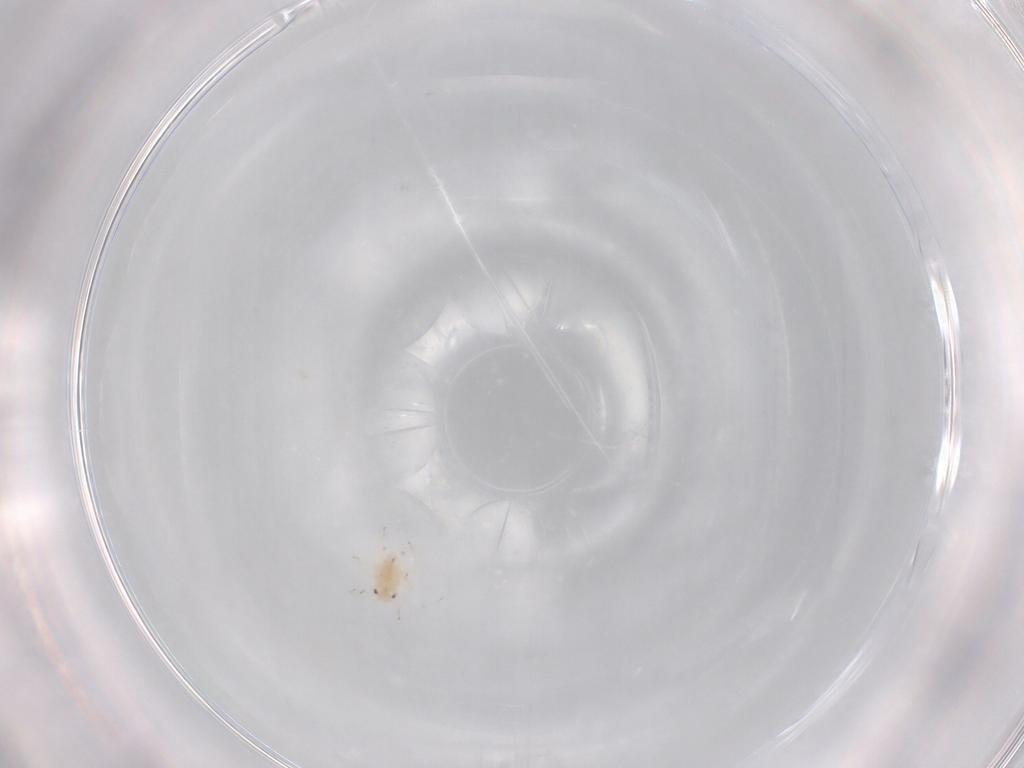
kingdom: Animalia
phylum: Arthropoda
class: Insecta
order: Hemiptera
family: Aphididae
